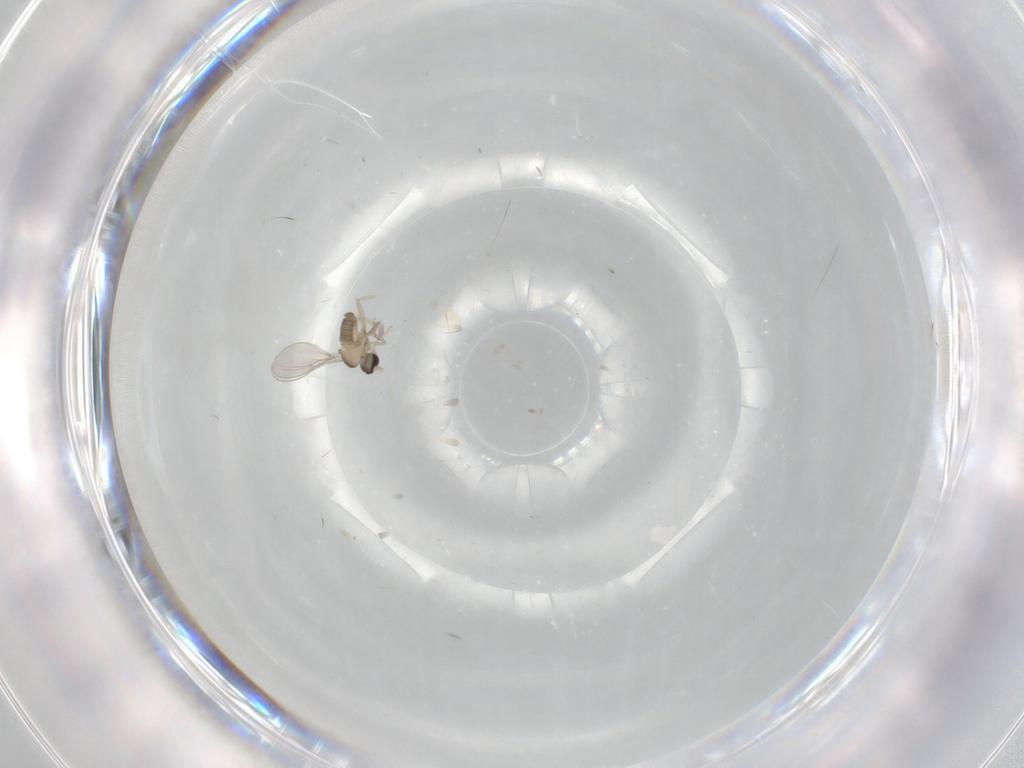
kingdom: Animalia
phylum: Arthropoda
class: Insecta
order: Diptera
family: Cecidomyiidae
